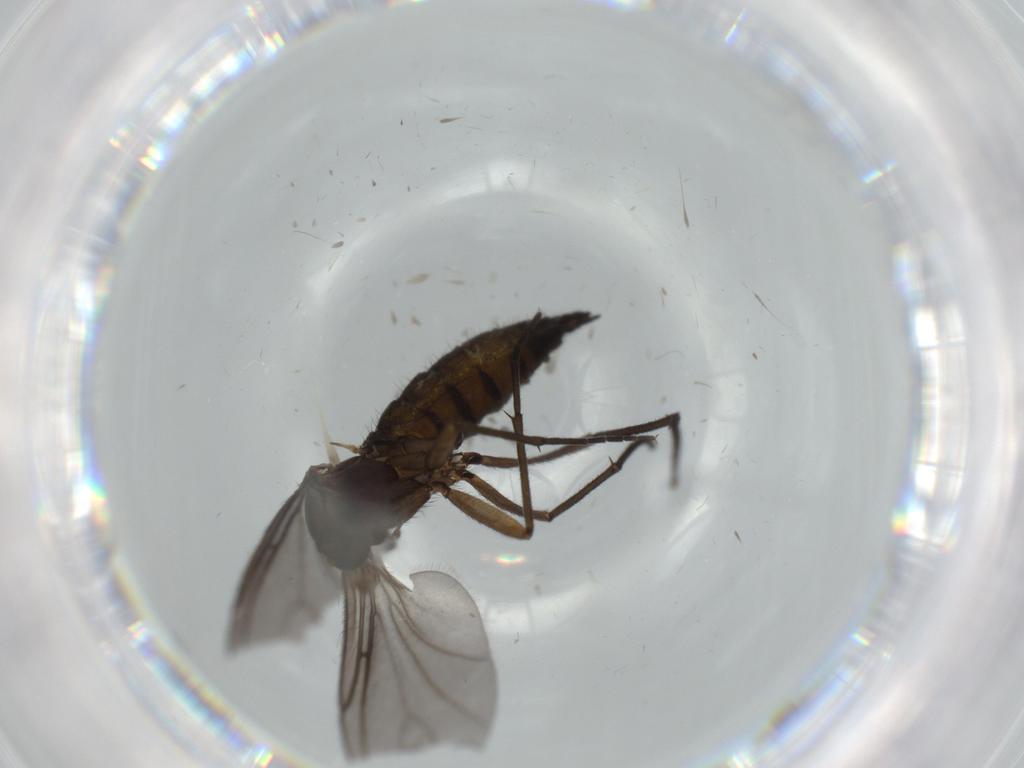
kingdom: Animalia
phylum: Arthropoda
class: Insecta
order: Diptera
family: Sciaridae
